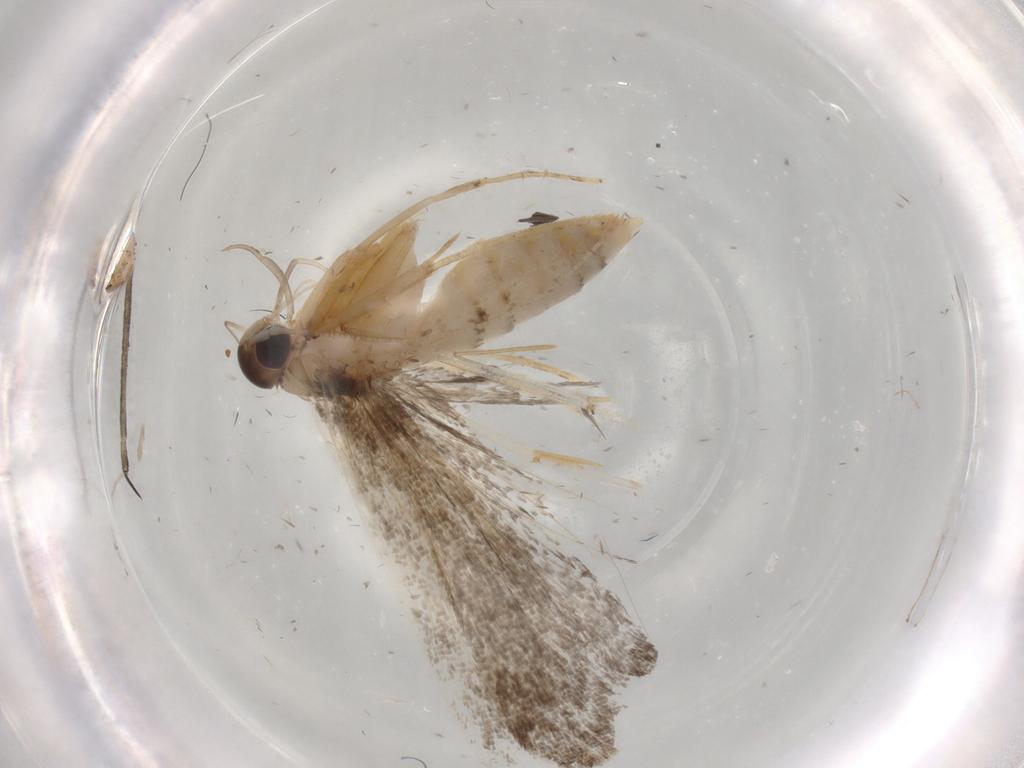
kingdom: Animalia
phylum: Arthropoda
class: Insecta
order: Lepidoptera
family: Cosmopterigidae
